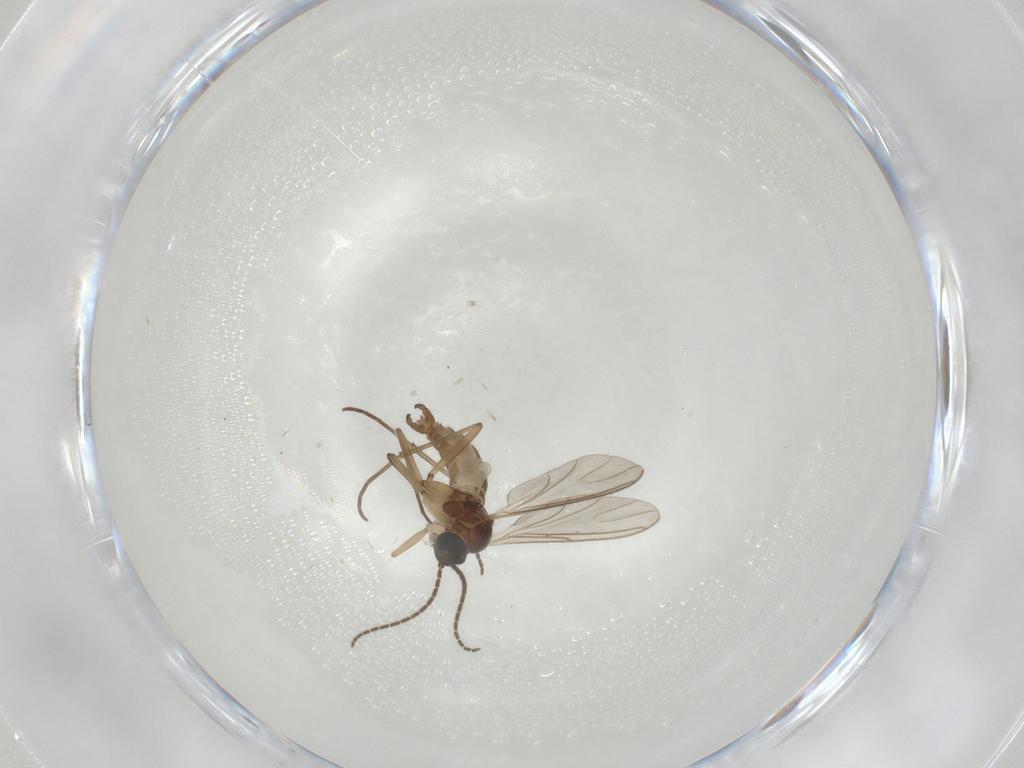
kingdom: Animalia
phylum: Arthropoda
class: Insecta
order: Diptera
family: Sciaridae
